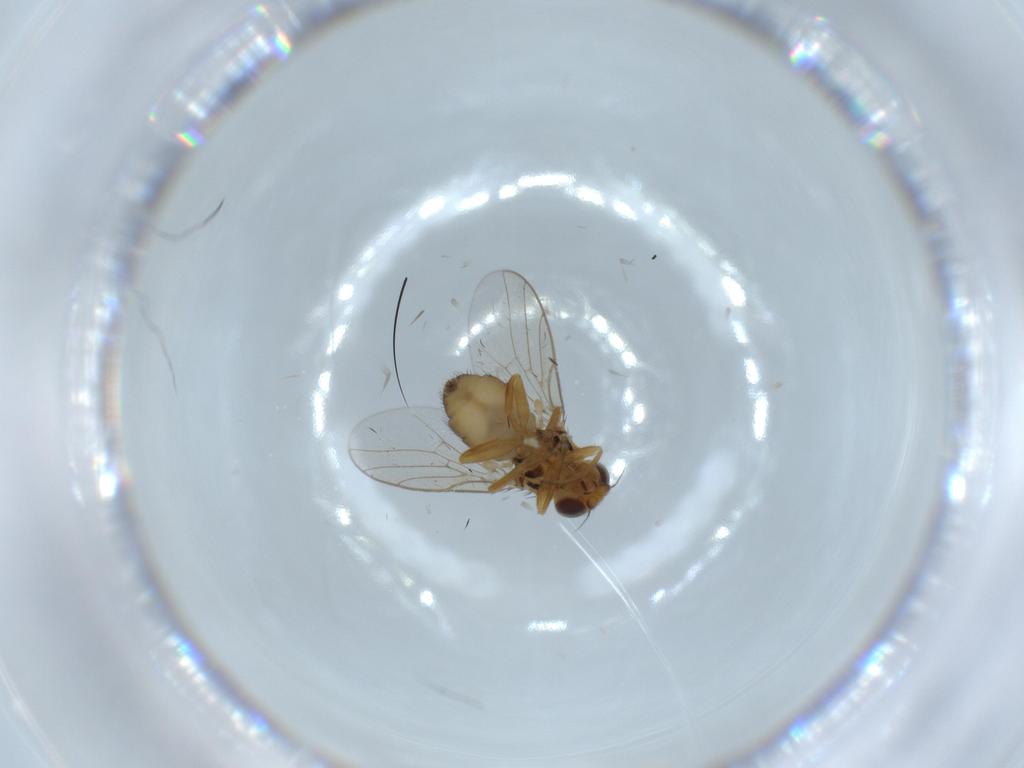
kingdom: Animalia
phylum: Arthropoda
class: Insecta
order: Diptera
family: Chloropidae
